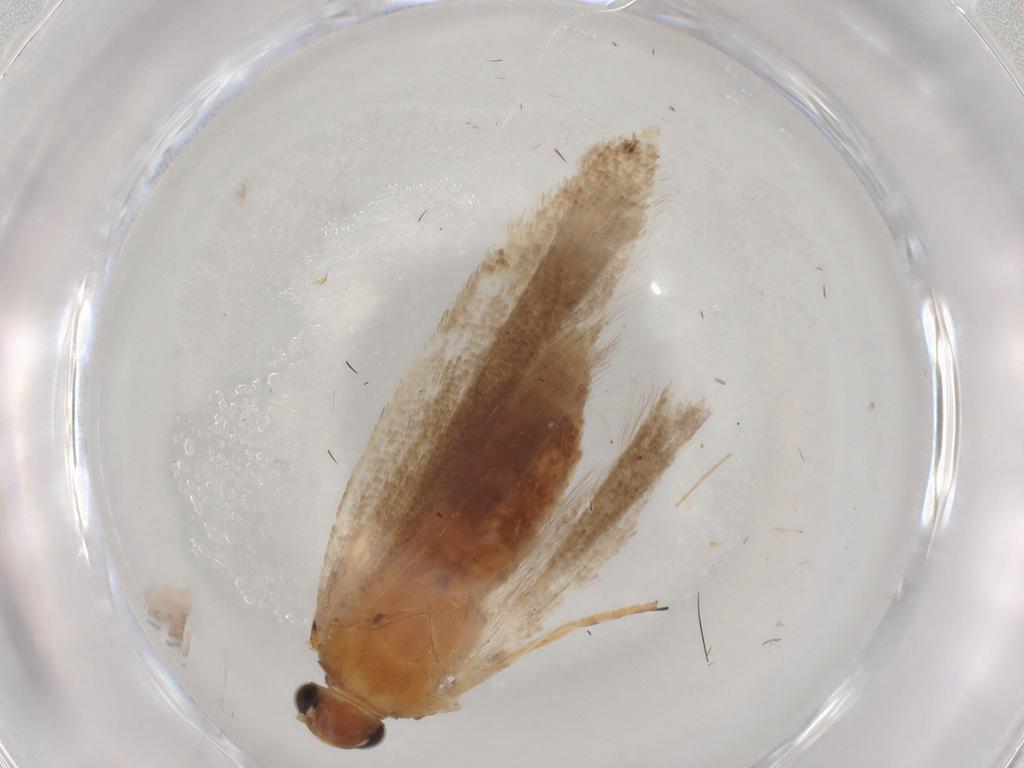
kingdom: Animalia
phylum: Arthropoda
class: Insecta
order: Lepidoptera
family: Gelechiidae
